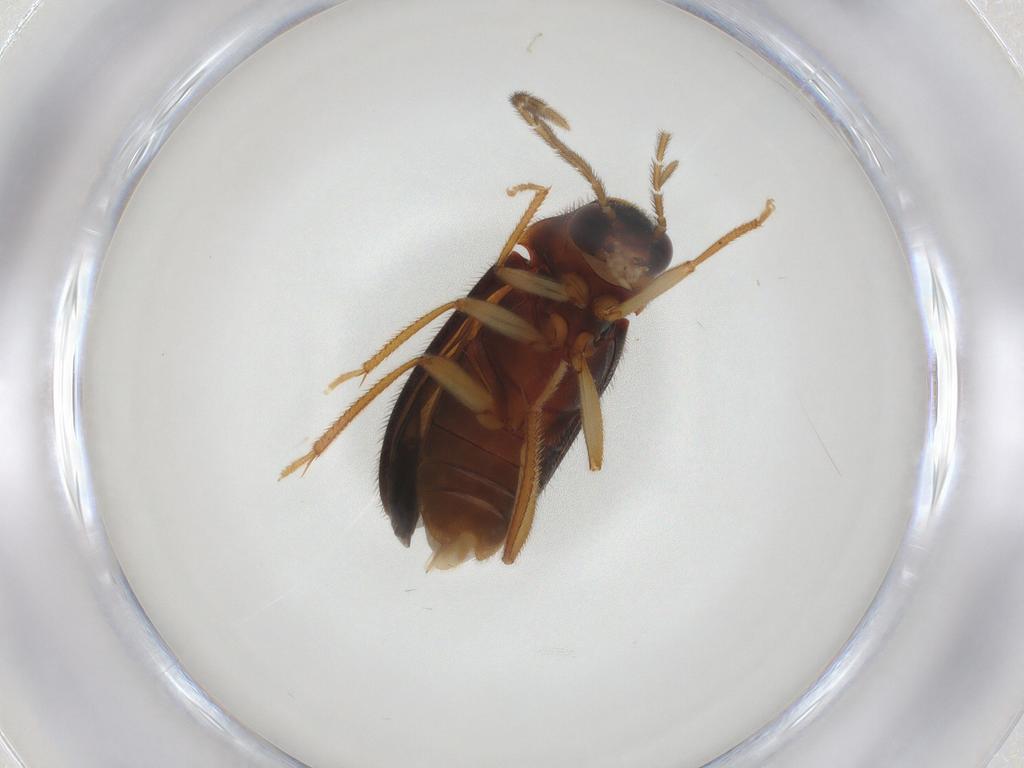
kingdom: Animalia
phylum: Arthropoda
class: Insecta
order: Coleoptera
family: Ptilodactylidae
